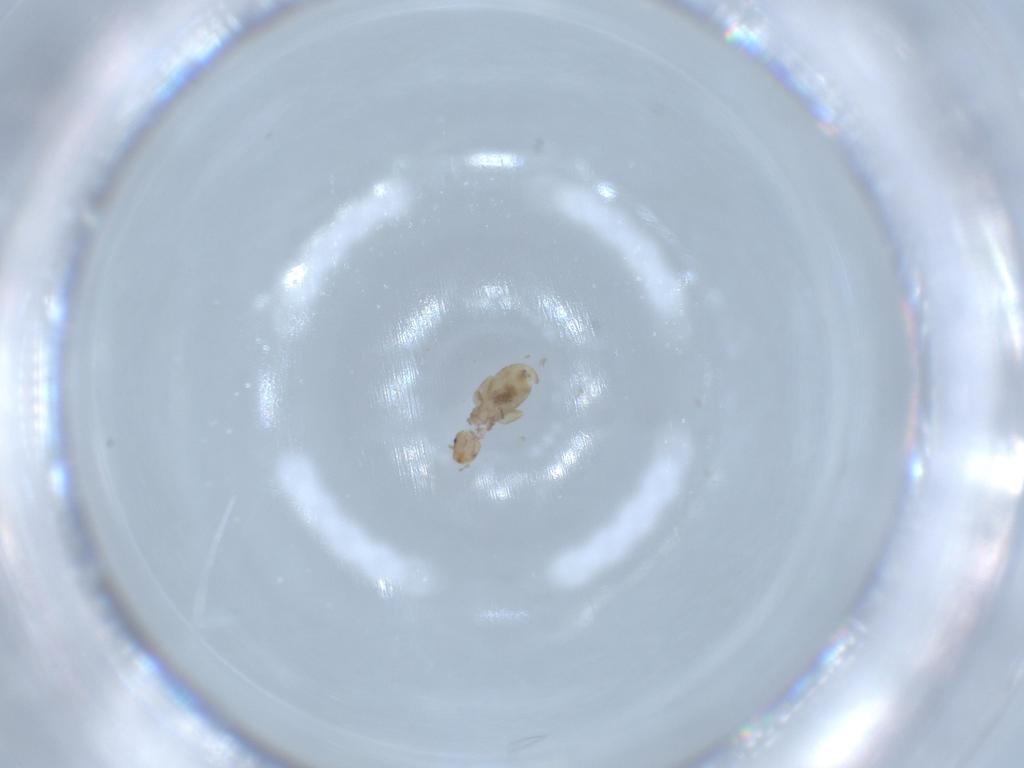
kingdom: Animalia
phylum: Arthropoda
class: Insecta
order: Psocodea
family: Liposcelididae
